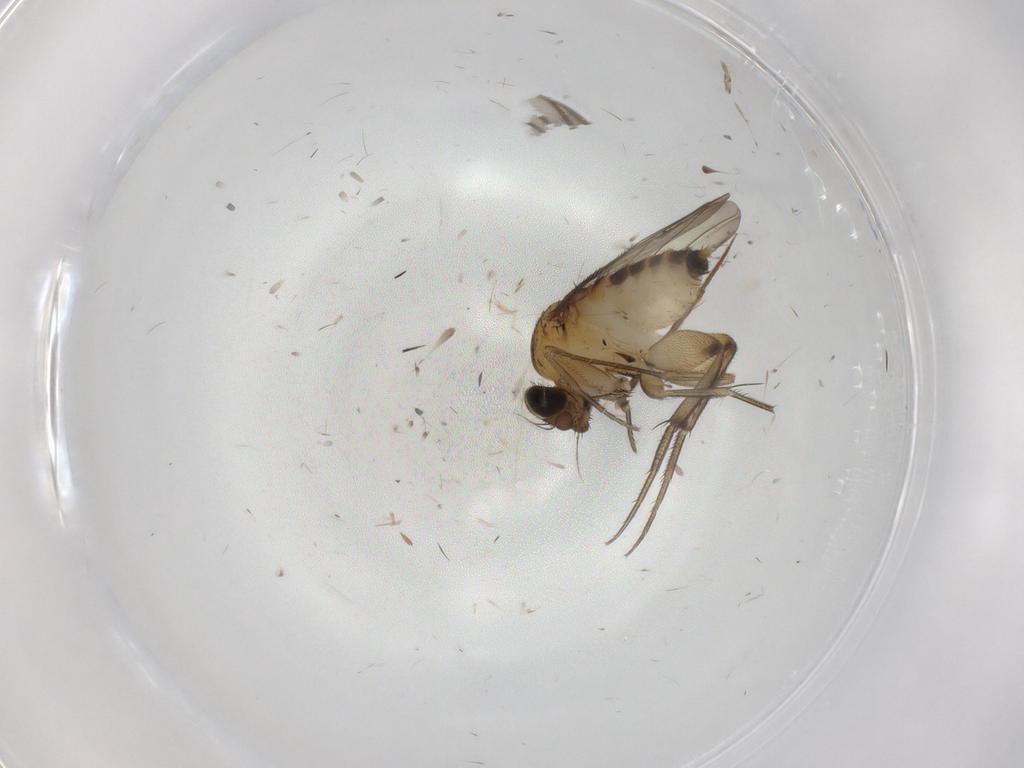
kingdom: Animalia
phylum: Arthropoda
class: Insecta
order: Diptera
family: Phoridae
